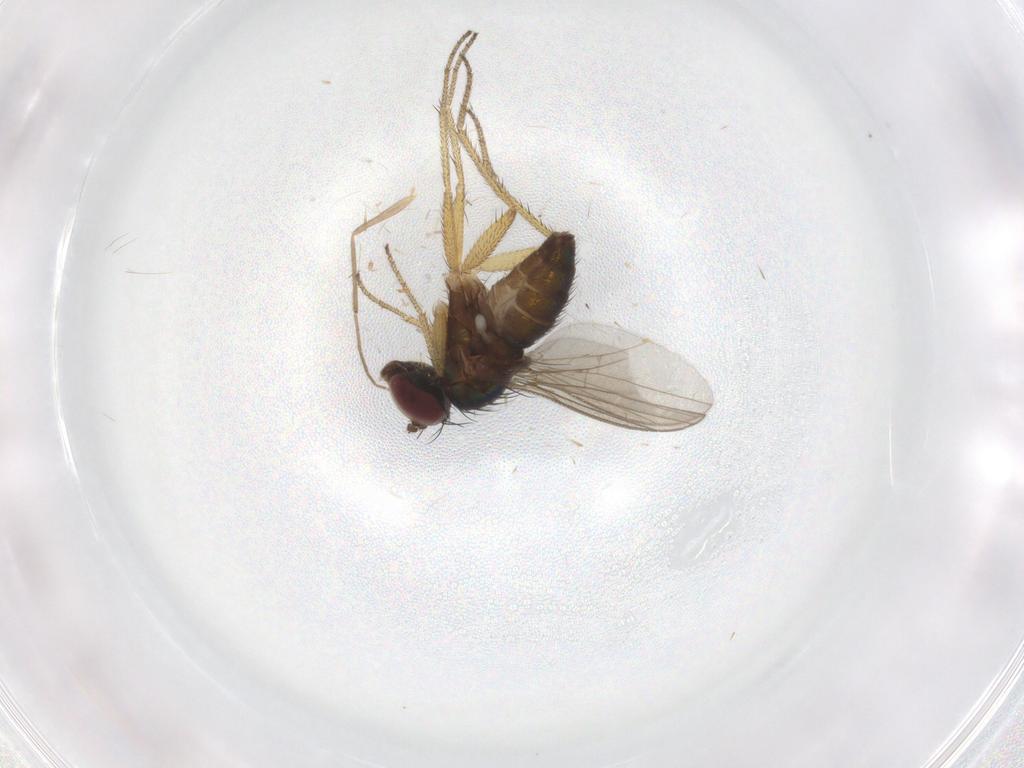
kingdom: Animalia
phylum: Arthropoda
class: Insecta
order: Diptera
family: Chironomidae
